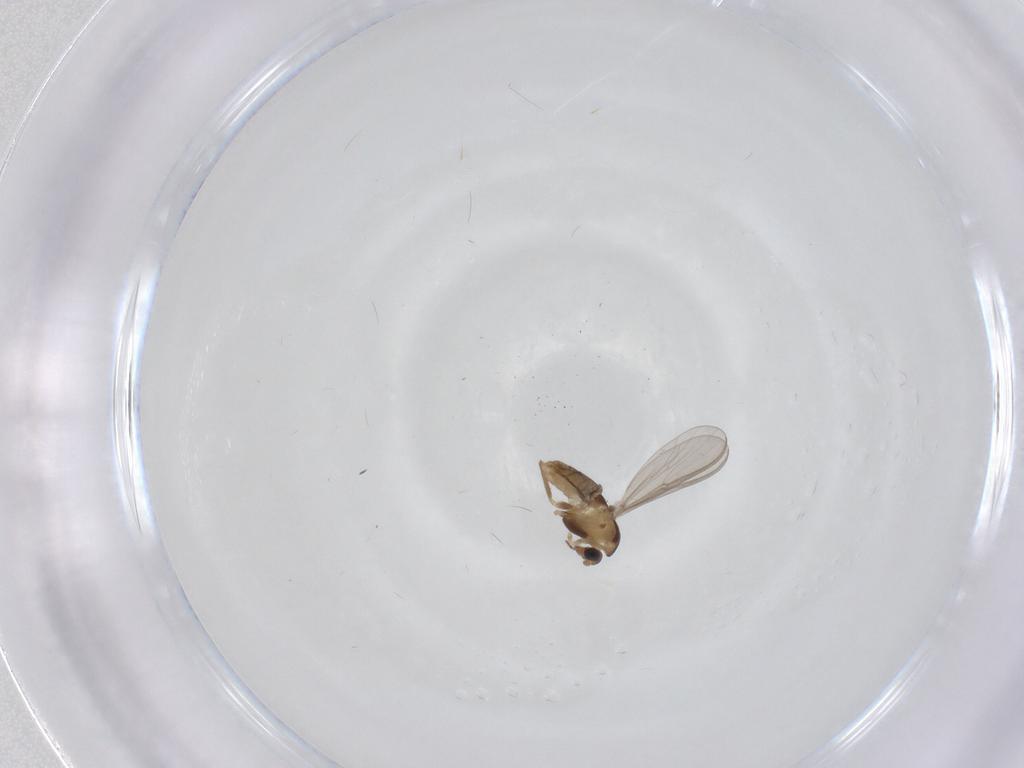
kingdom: Animalia
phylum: Arthropoda
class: Insecta
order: Diptera
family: Chironomidae
